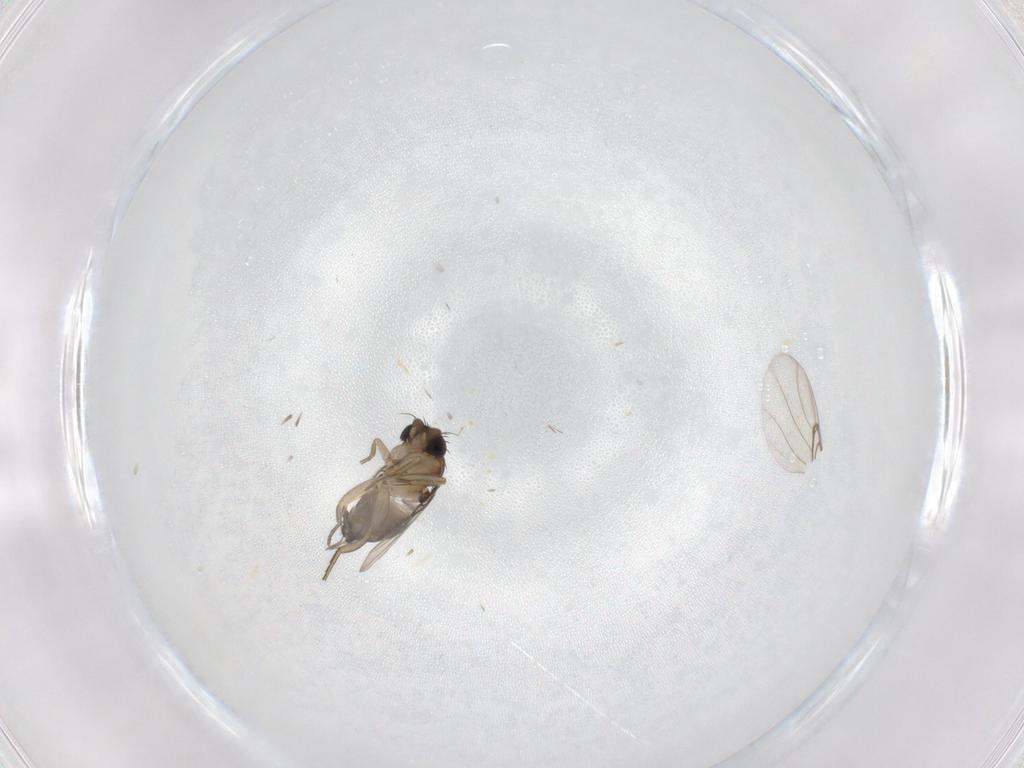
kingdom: Animalia
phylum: Arthropoda
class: Insecta
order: Diptera
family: Chironomidae
